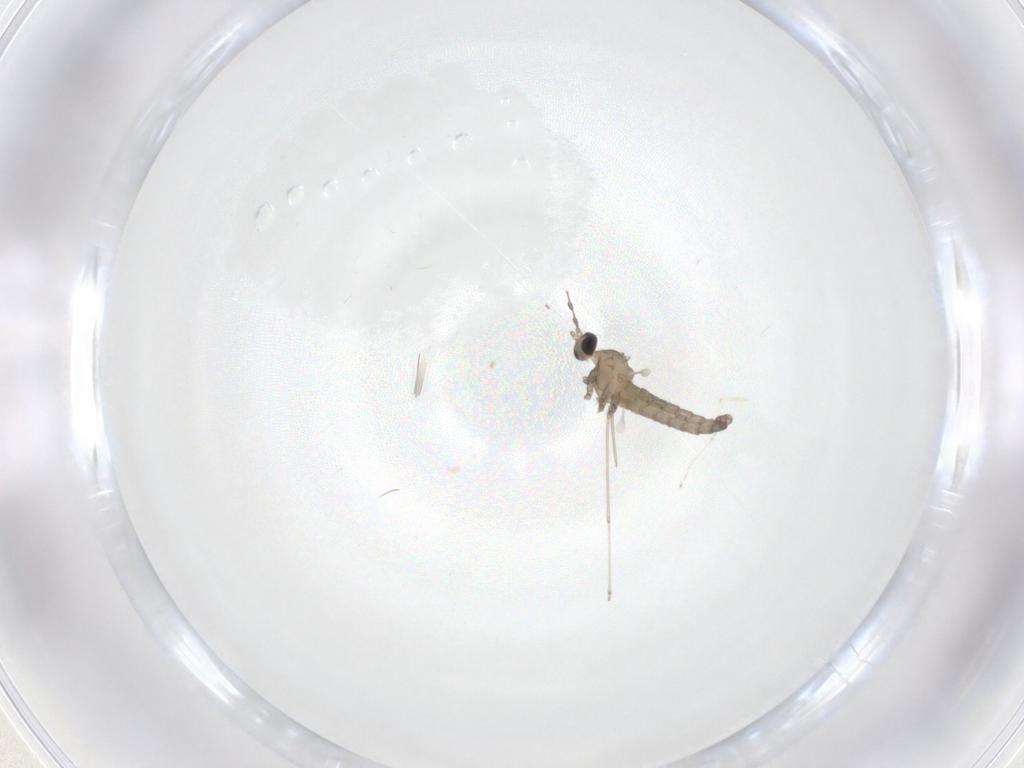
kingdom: Animalia
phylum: Arthropoda
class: Insecta
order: Diptera
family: Cecidomyiidae
